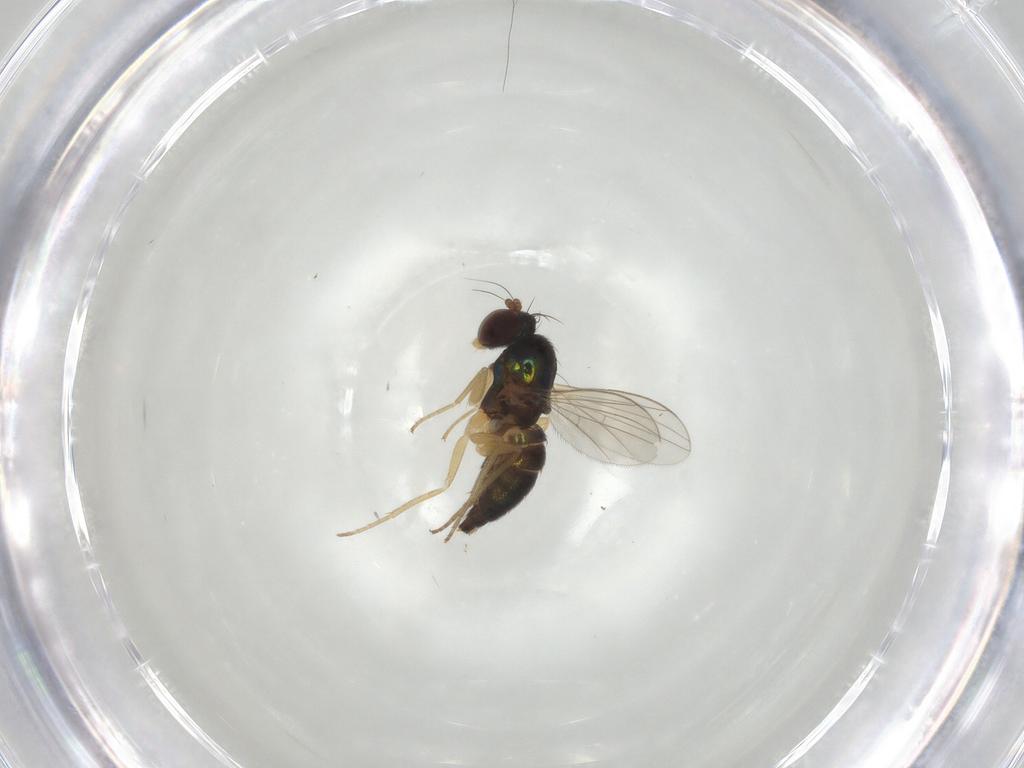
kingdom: Animalia
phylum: Arthropoda
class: Insecta
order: Diptera
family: Dolichopodidae
